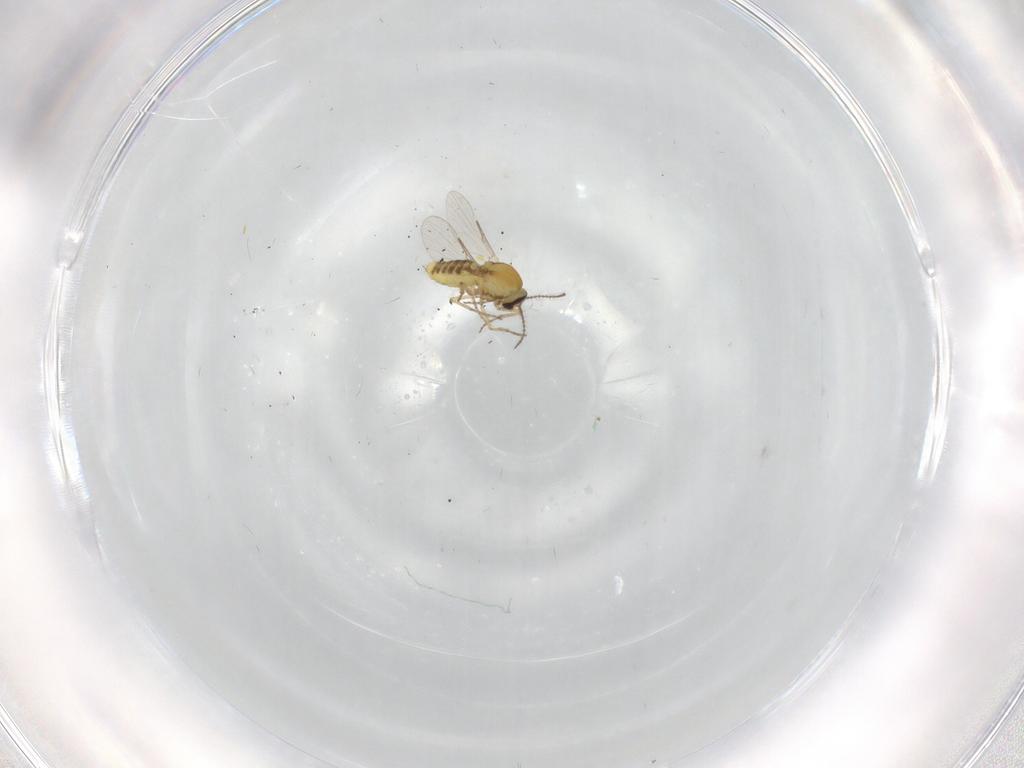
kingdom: Animalia
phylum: Arthropoda
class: Insecta
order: Diptera
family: Ceratopogonidae
